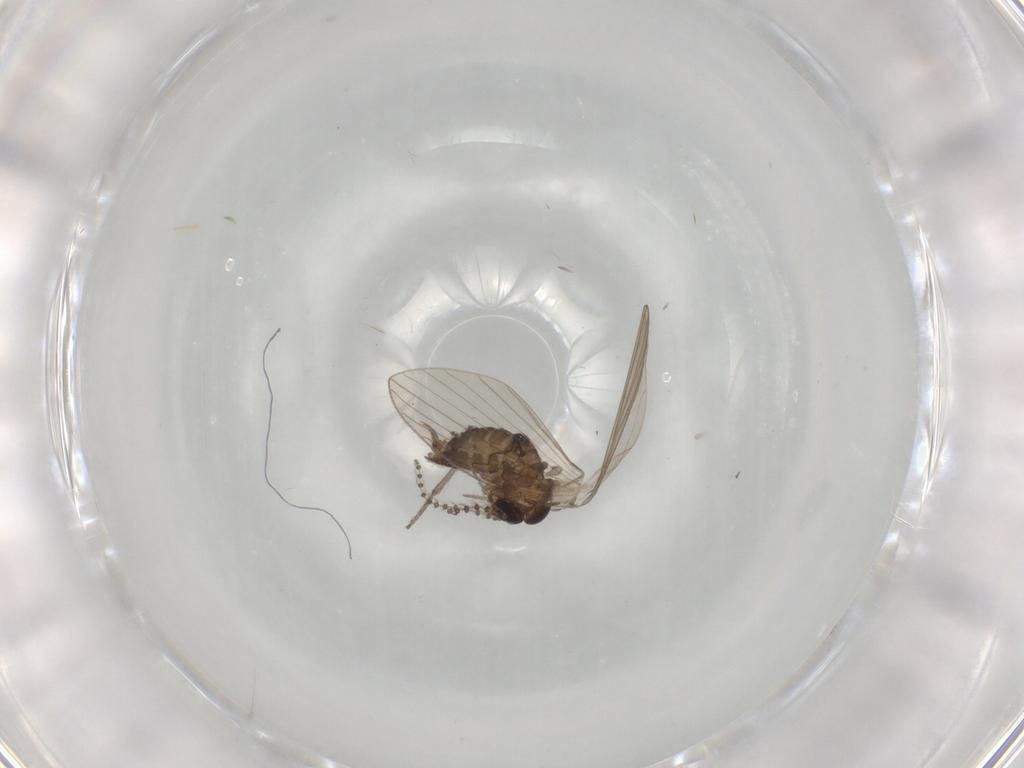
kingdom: Animalia
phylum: Arthropoda
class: Insecta
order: Diptera
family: Psychodidae
